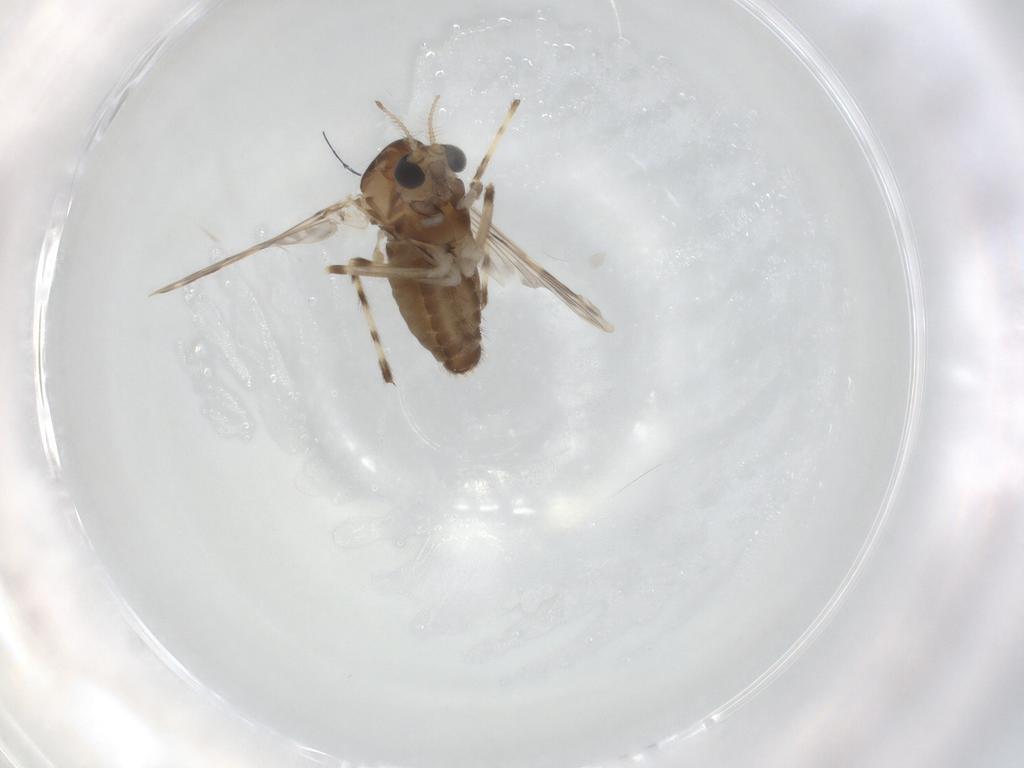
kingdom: Animalia
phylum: Arthropoda
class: Insecta
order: Diptera
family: Chironomidae
